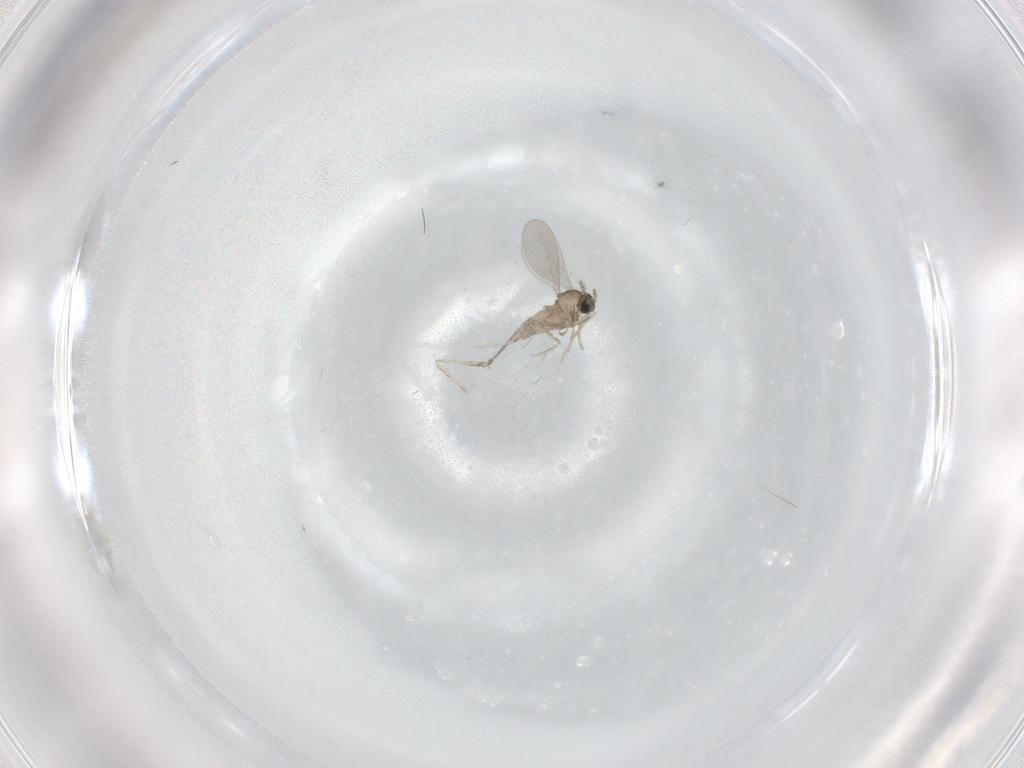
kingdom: Animalia
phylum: Arthropoda
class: Insecta
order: Diptera
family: Cecidomyiidae
